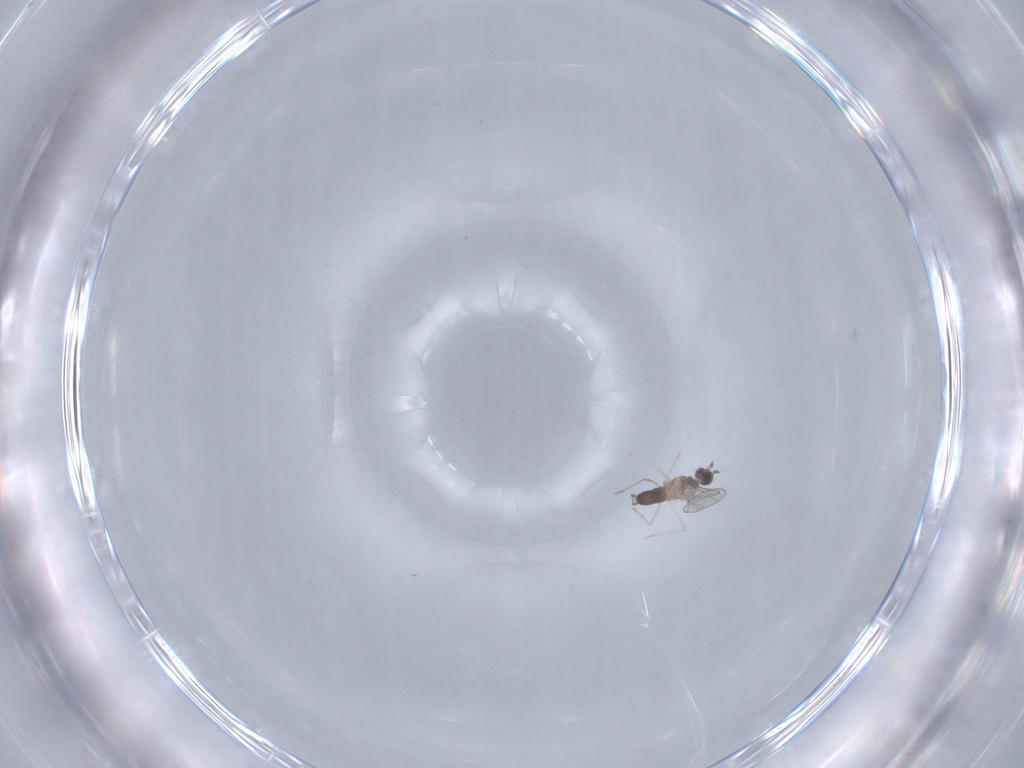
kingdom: Animalia
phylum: Arthropoda
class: Insecta
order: Diptera
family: Cecidomyiidae
